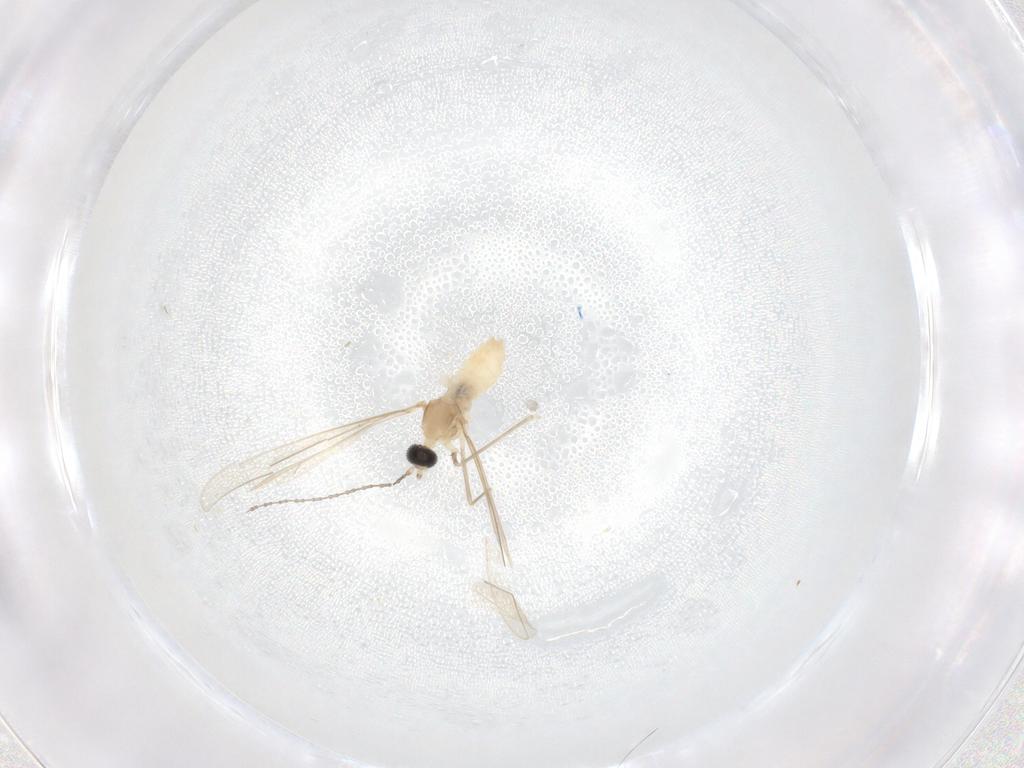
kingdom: Animalia
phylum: Arthropoda
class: Insecta
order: Diptera
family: Cecidomyiidae
